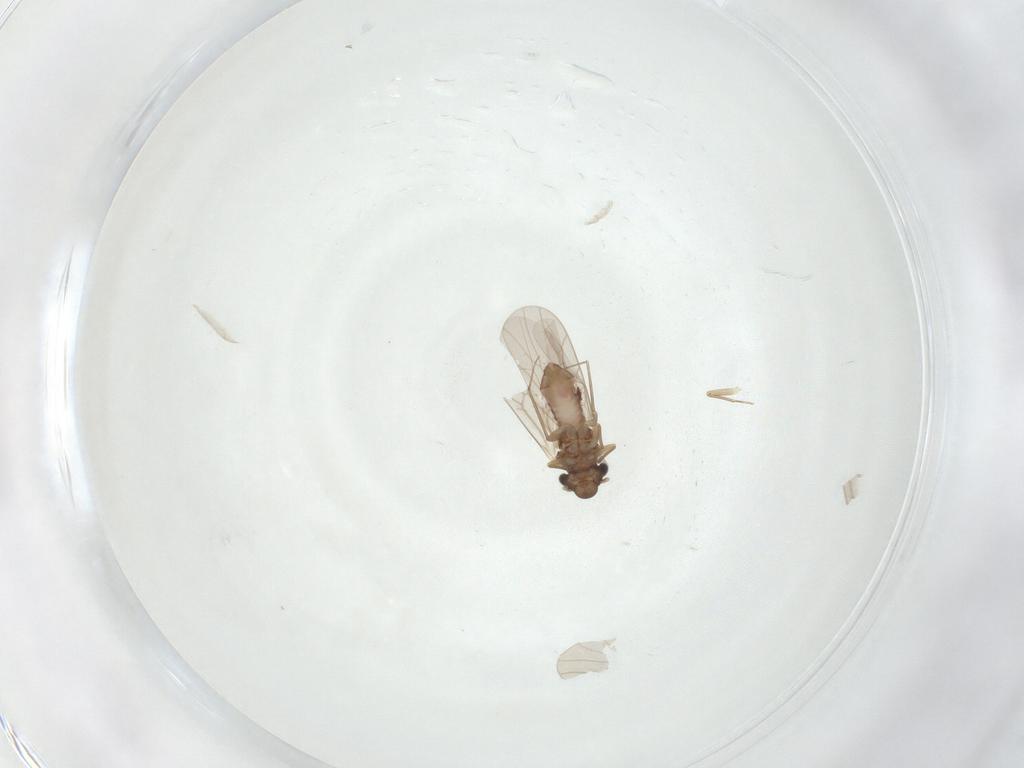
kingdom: Animalia
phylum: Arthropoda
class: Insecta
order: Psocodea
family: Lepidopsocidae
